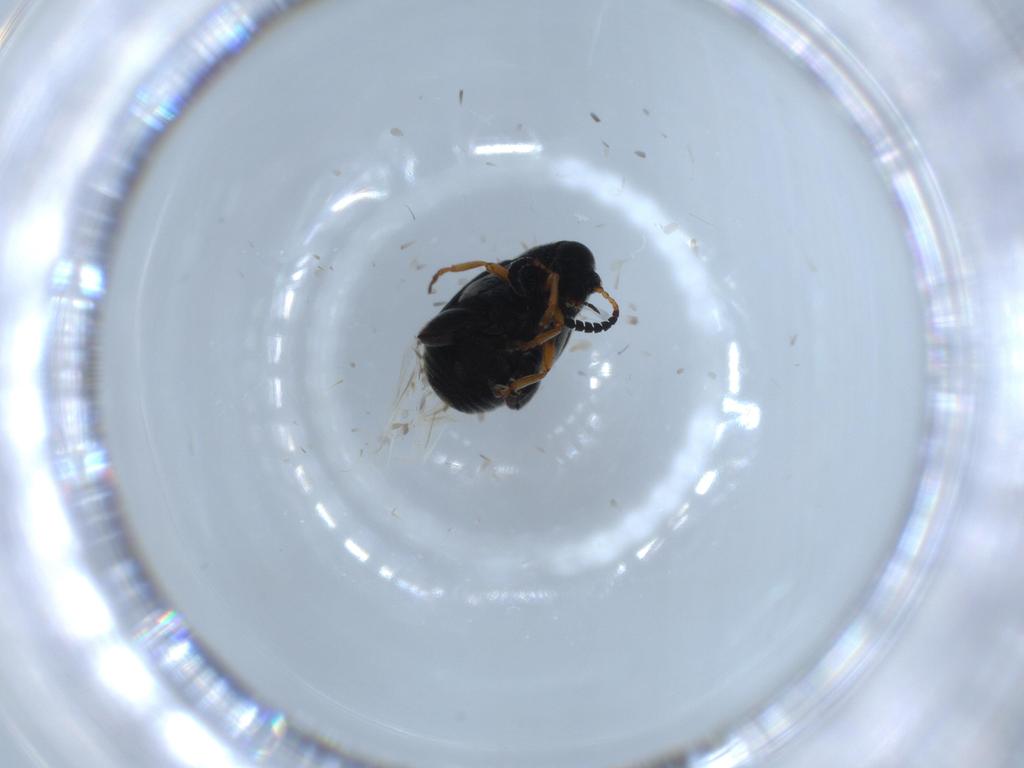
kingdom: Animalia
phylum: Arthropoda
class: Insecta
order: Coleoptera
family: Chrysomelidae
